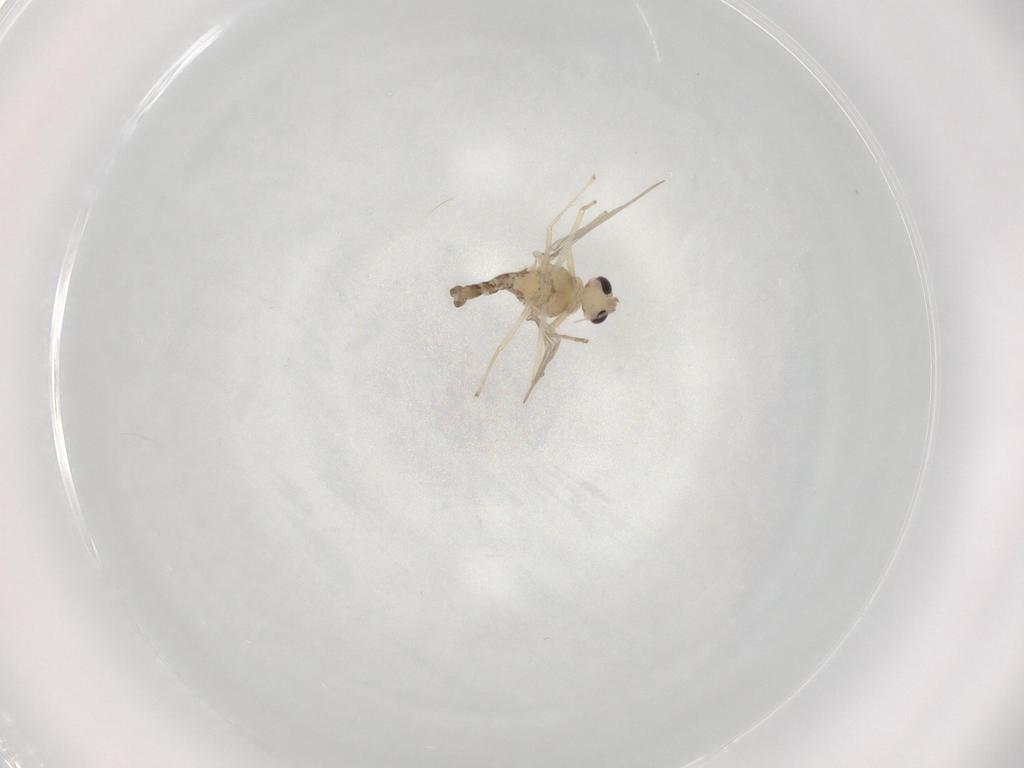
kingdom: Animalia
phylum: Arthropoda
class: Insecta
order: Diptera
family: Chironomidae
